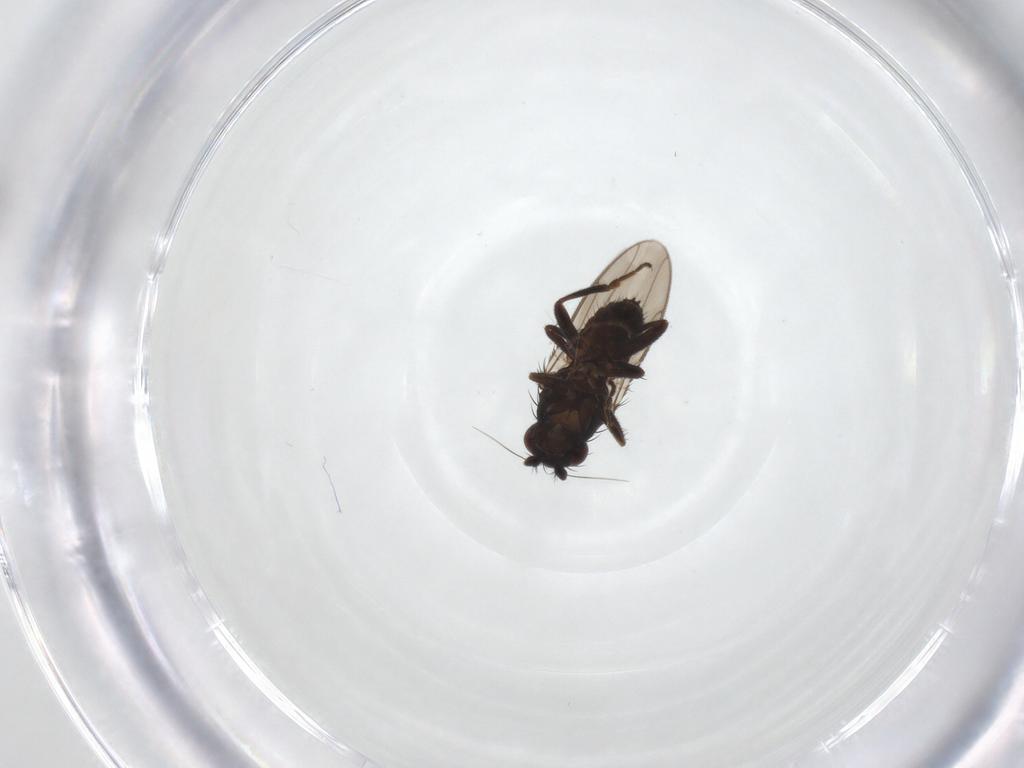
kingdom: Animalia
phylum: Arthropoda
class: Insecta
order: Diptera
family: Sphaeroceridae
